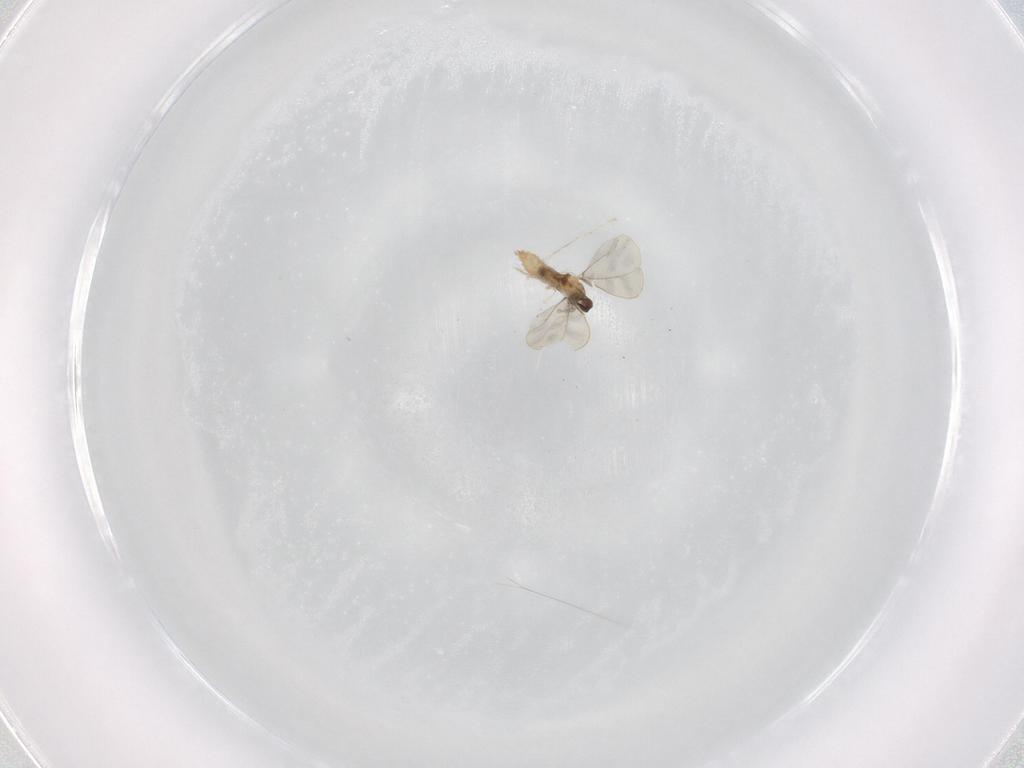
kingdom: Animalia
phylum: Arthropoda
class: Insecta
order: Diptera
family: Cecidomyiidae
